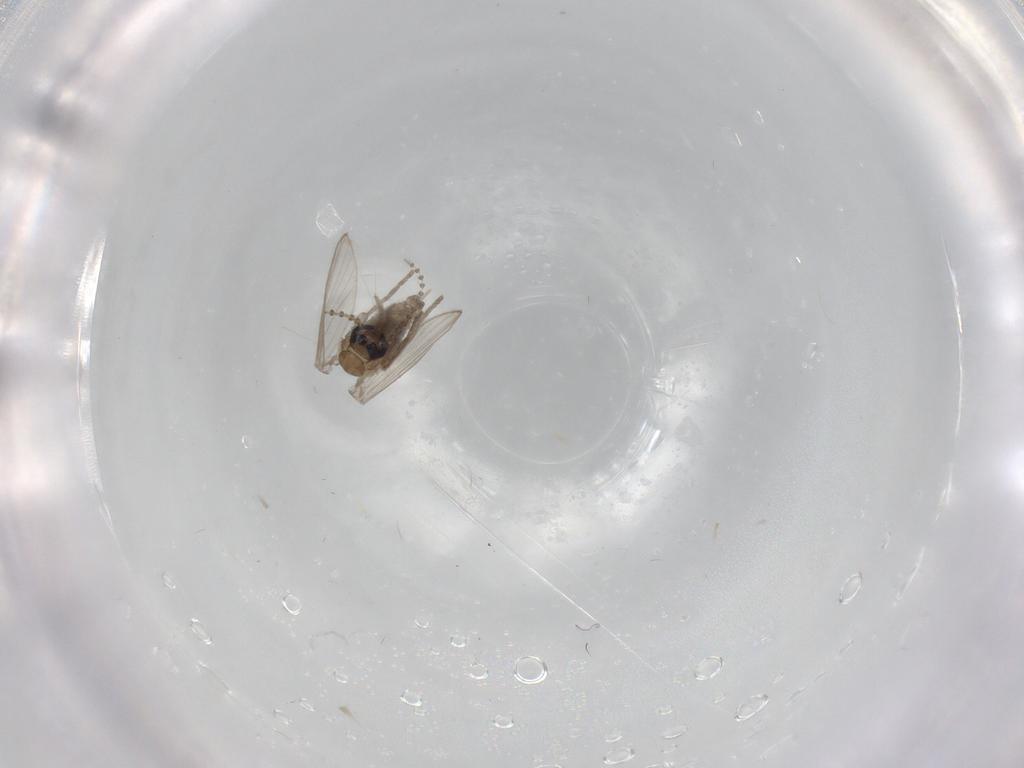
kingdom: Animalia
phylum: Arthropoda
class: Insecta
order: Diptera
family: Psychodidae
